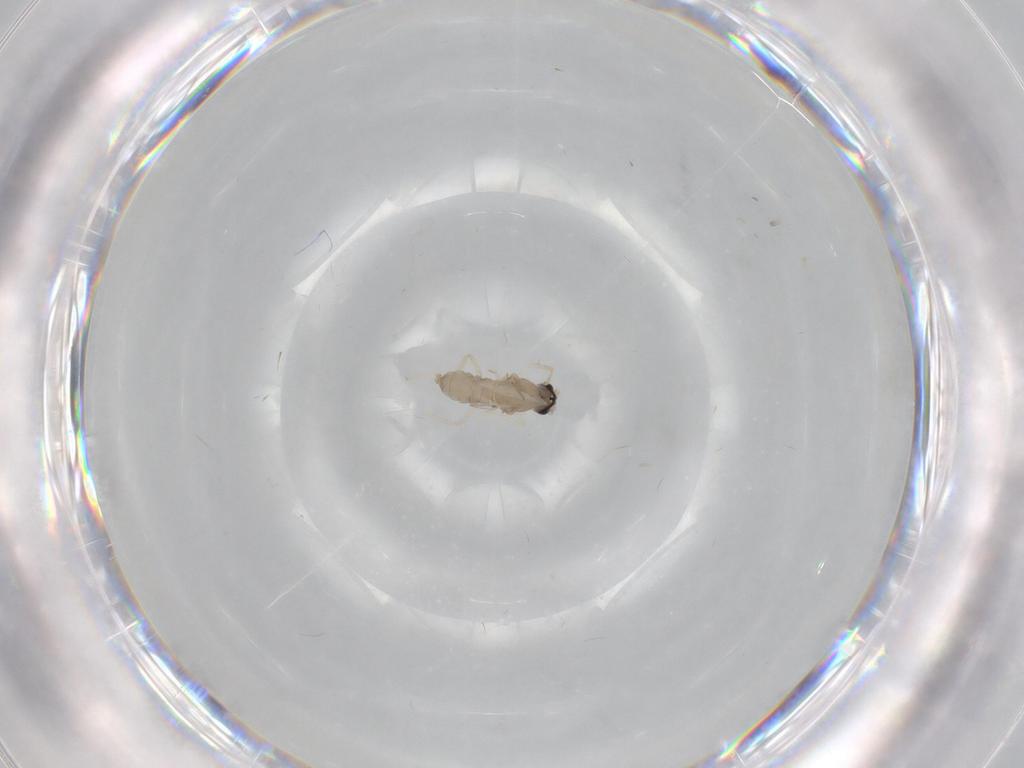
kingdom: Animalia
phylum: Arthropoda
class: Insecta
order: Diptera
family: Cecidomyiidae
